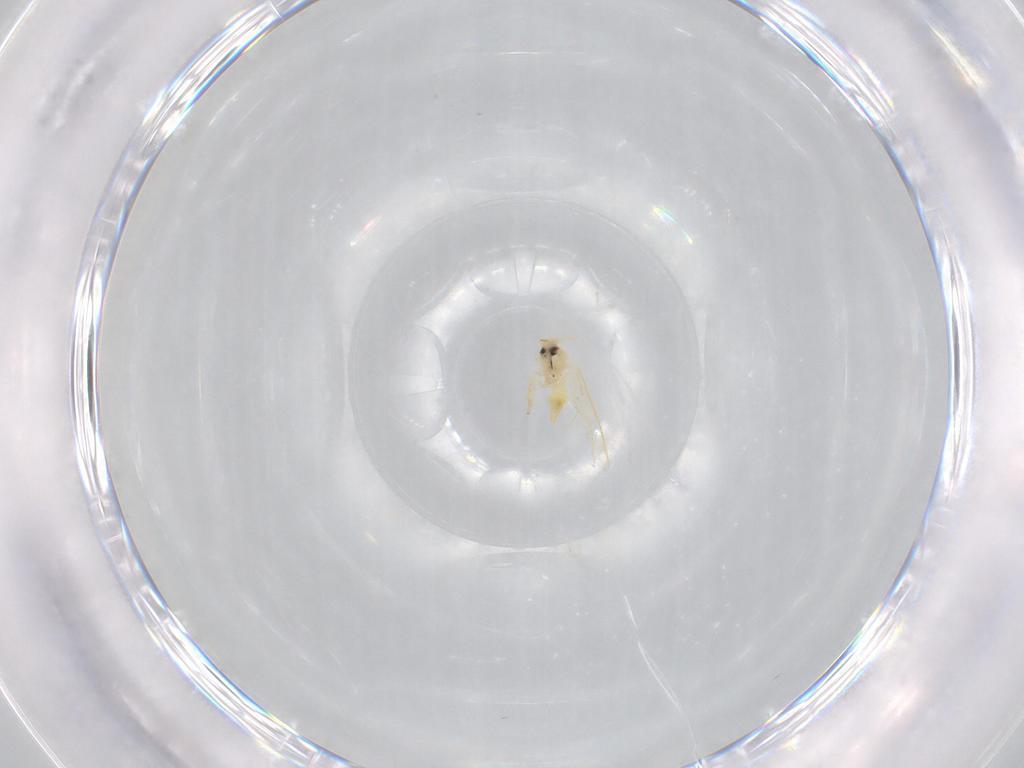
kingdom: Animalia
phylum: Arthropoda
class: Insecta
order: Hemiptera
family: Aleyrodidae
